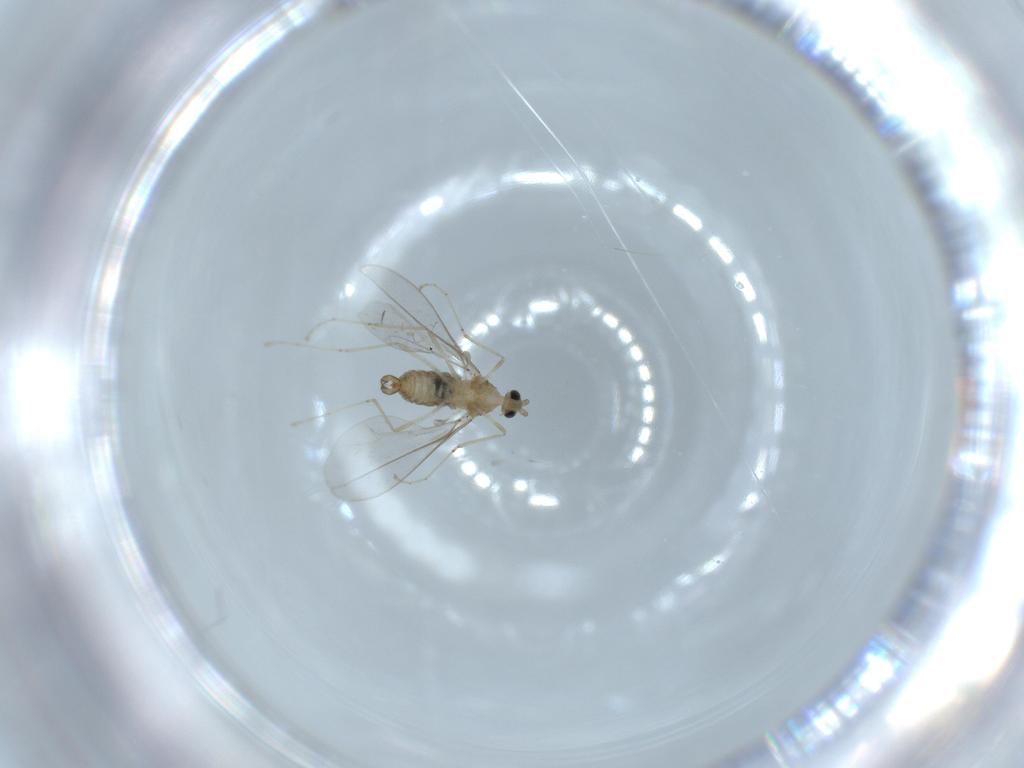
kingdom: Animalia
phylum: Arthropoda
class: Insecta
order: Diptera
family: Cecidomyiidae
